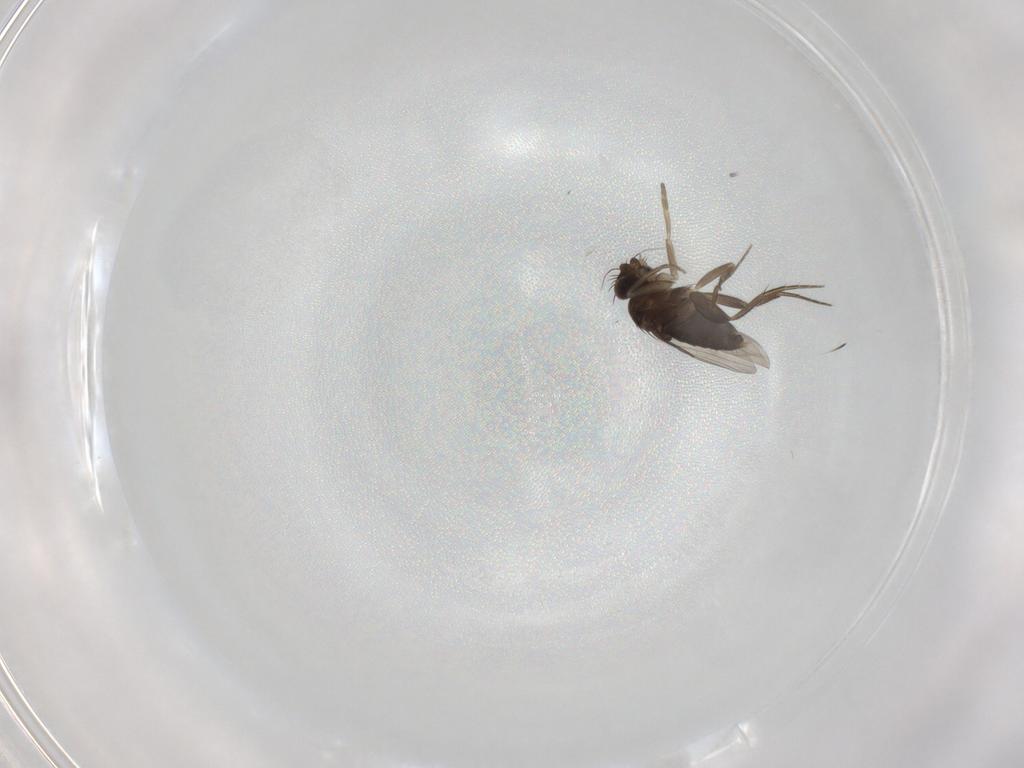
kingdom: Animalia
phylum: Arthropoda
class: Insecta
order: Diptera
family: Phoridae
